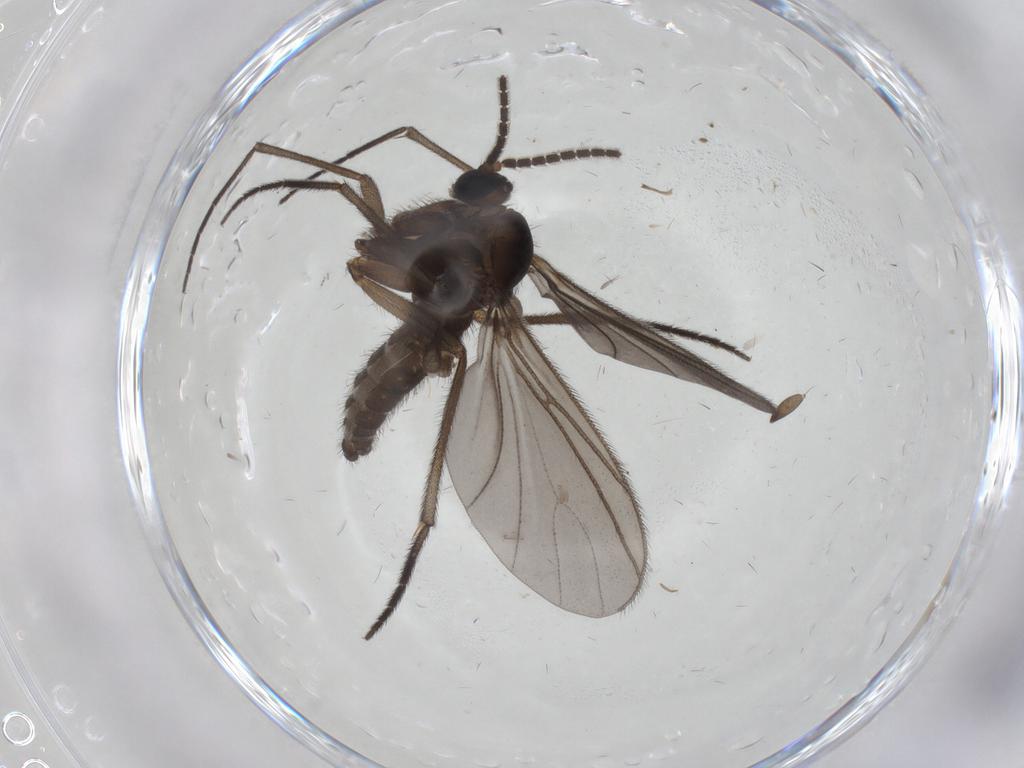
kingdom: Animalia
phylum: Arthropoda
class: Insecta
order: Diptera
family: Sciaridae
